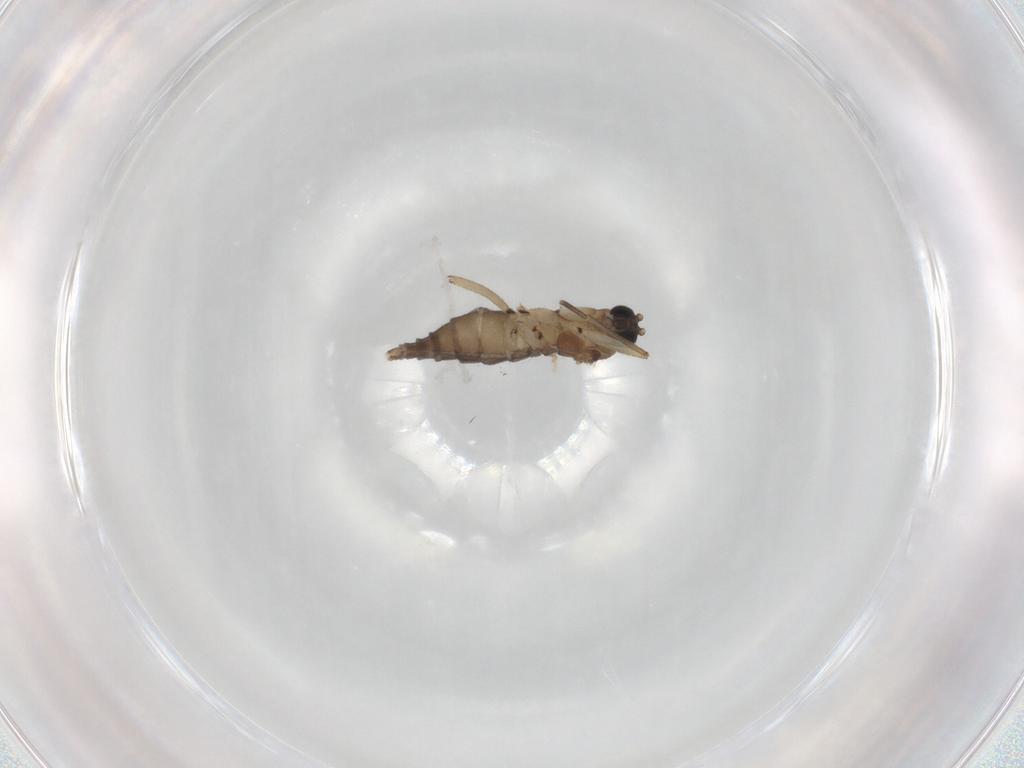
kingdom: Animalia
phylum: Arthropoda
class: Insecta
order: Diptera
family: Sciaridae
